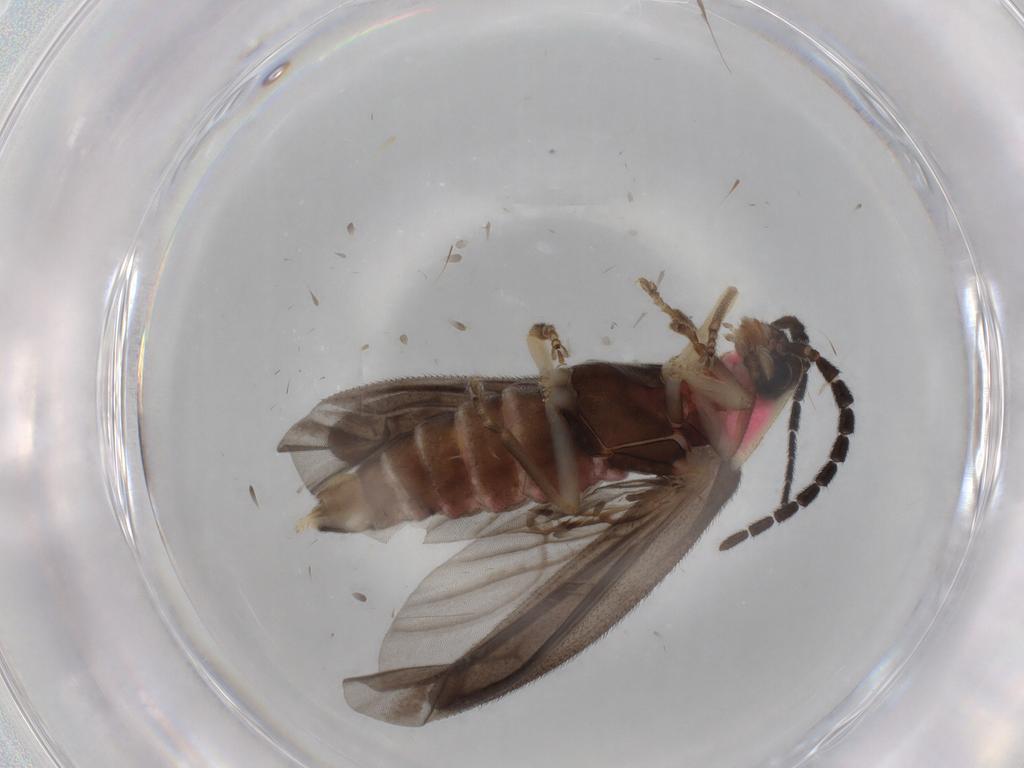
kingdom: Animalia
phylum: Arthropoda
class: Insecta
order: Coleoptera
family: Lampyridae
